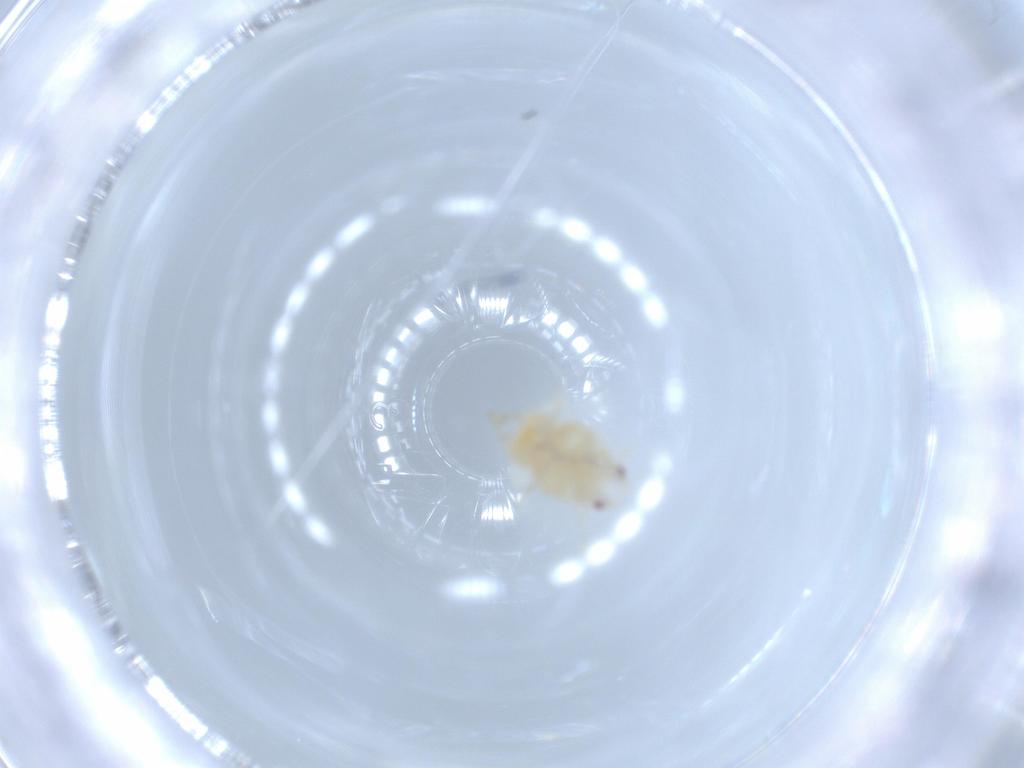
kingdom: Animalia
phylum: Arthropoda
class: Insecta
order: Hemiptera
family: Flatidae
